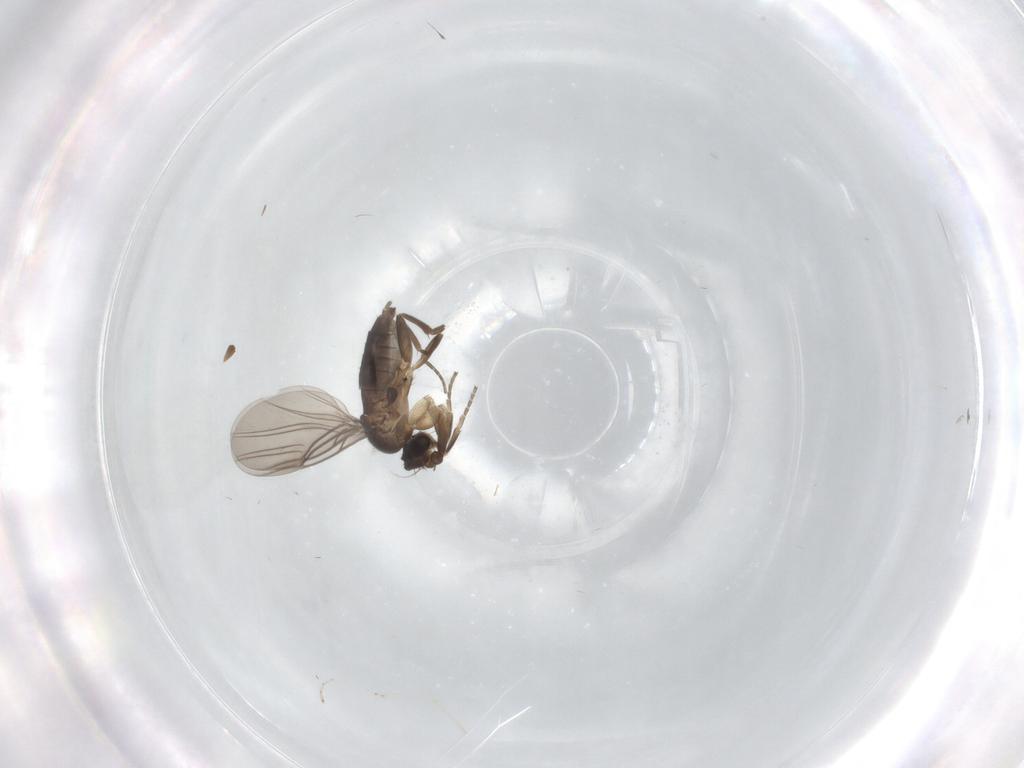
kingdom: Animalia
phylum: Arthropoda
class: Insecta
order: Diptera
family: Cecidomyiidae
